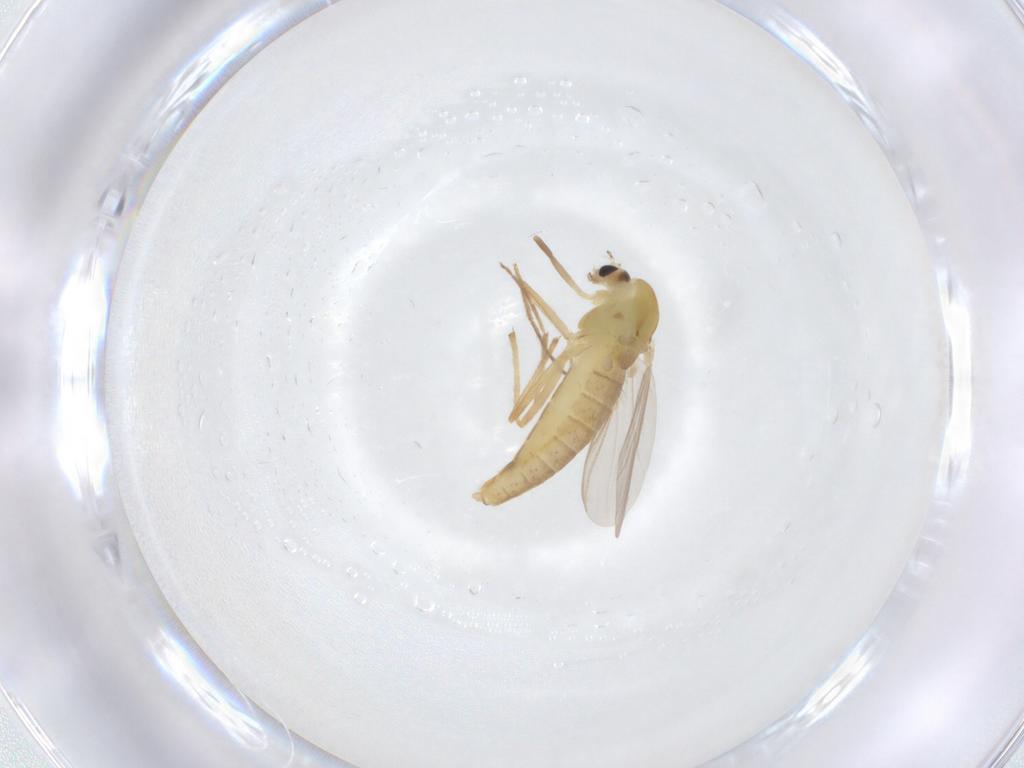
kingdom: Animalia
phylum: Arthropoda
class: Insecta
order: Diptera
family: Chironomidae
